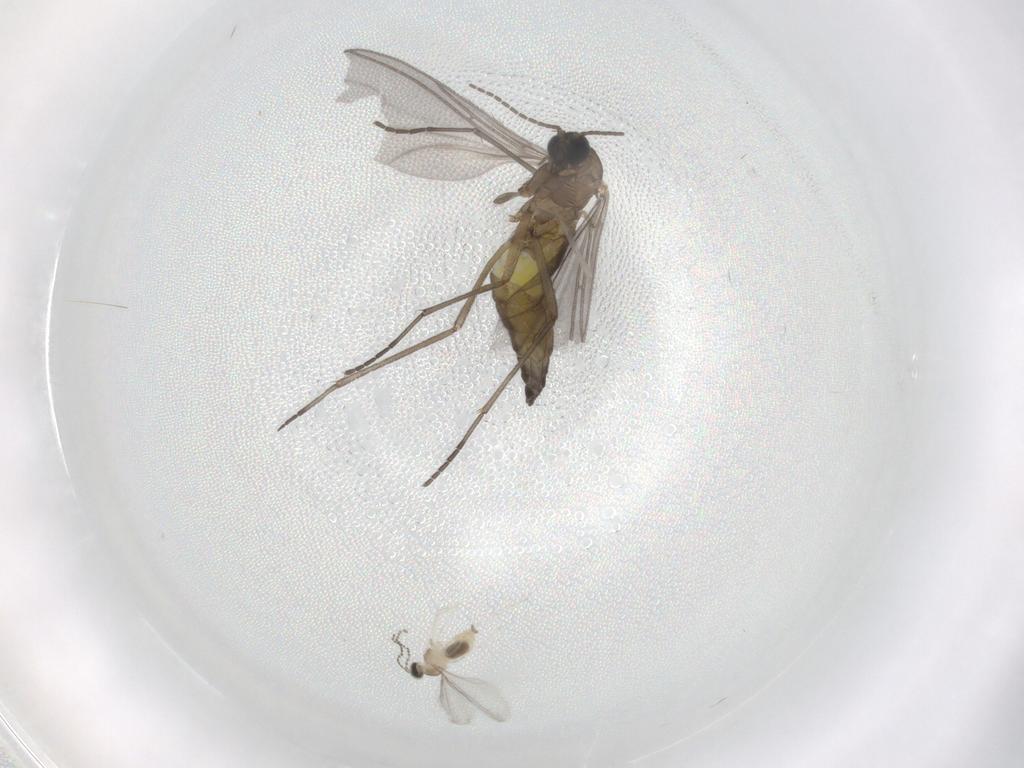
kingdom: Animalia
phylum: Arthropoda
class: Insecta
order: Diptera
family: Sciaridae
